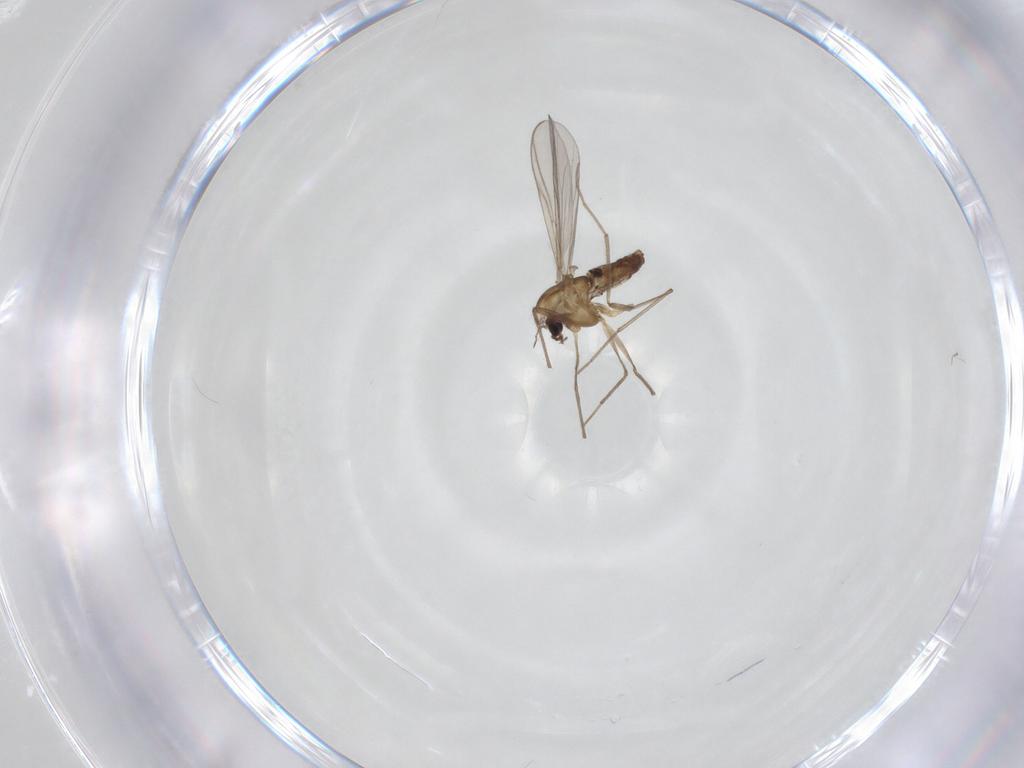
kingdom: Animalia
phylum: Arthropoda
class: Insecta
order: Diptera
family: Chironomidae
